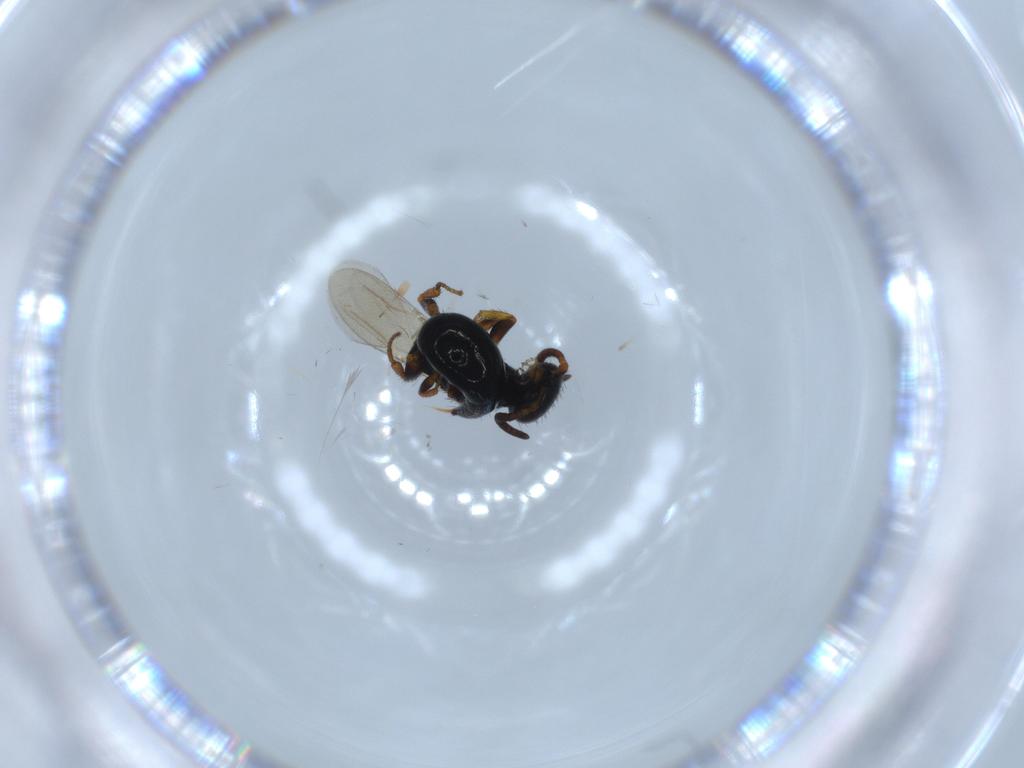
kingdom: Animalia
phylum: Arthropoda
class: Insecta
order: Hymenoptera
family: Bethylidae
